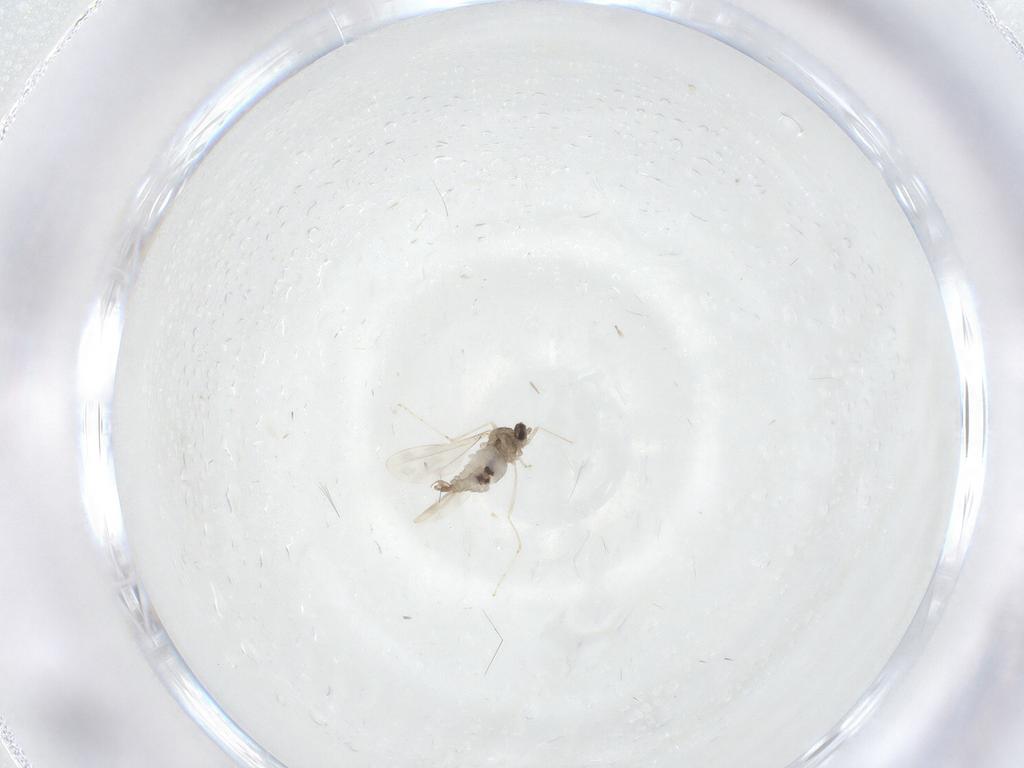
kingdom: Animalia
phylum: Arthropoda
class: Insecta
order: Diptera
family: Cecidomyiidae
